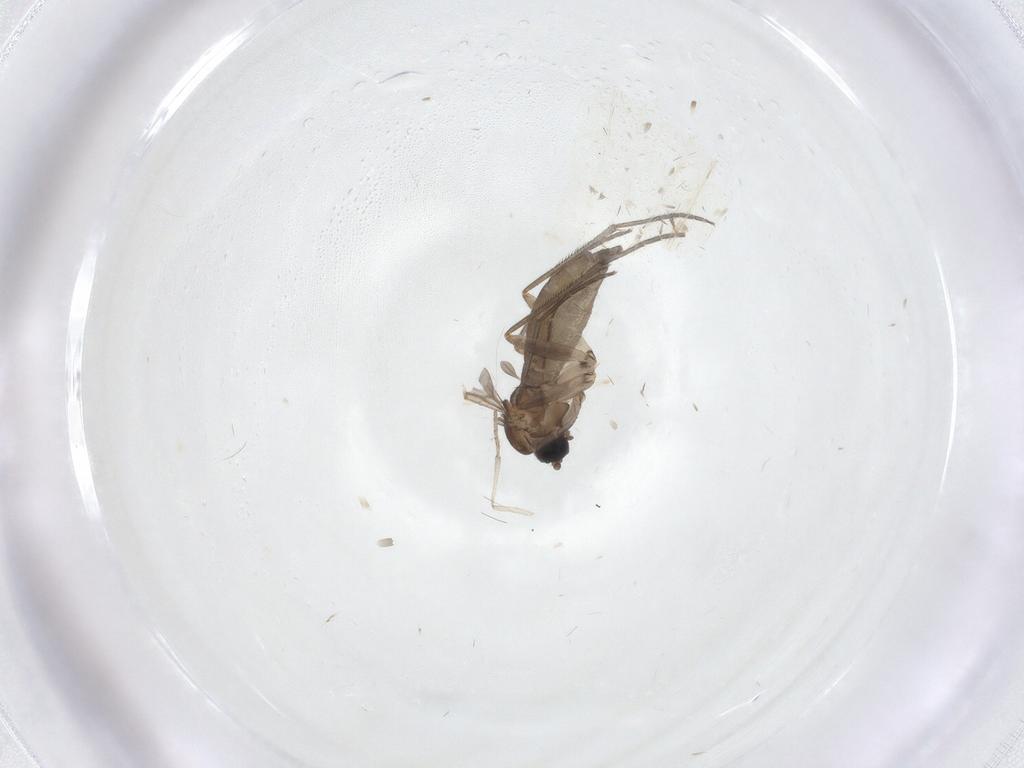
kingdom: Animalia
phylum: Arthropoda
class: Insecta
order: Diptera
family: Sciaridae
